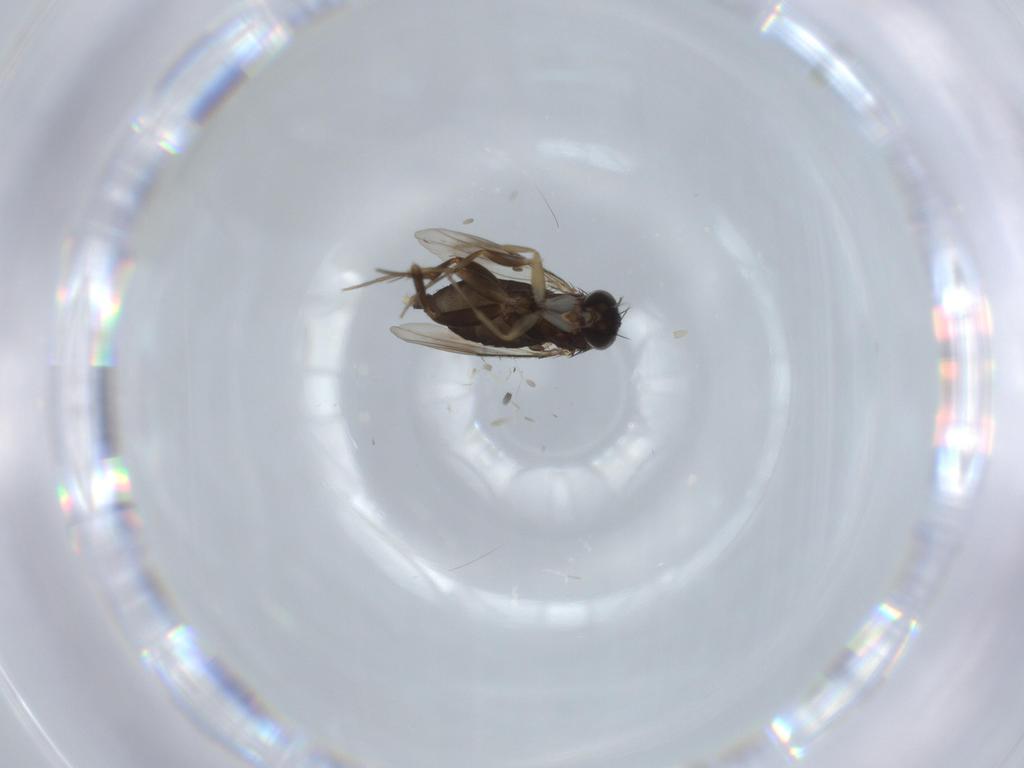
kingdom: Animalia
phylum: Arthropoda
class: Insecta
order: Diptera
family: Phoridae
